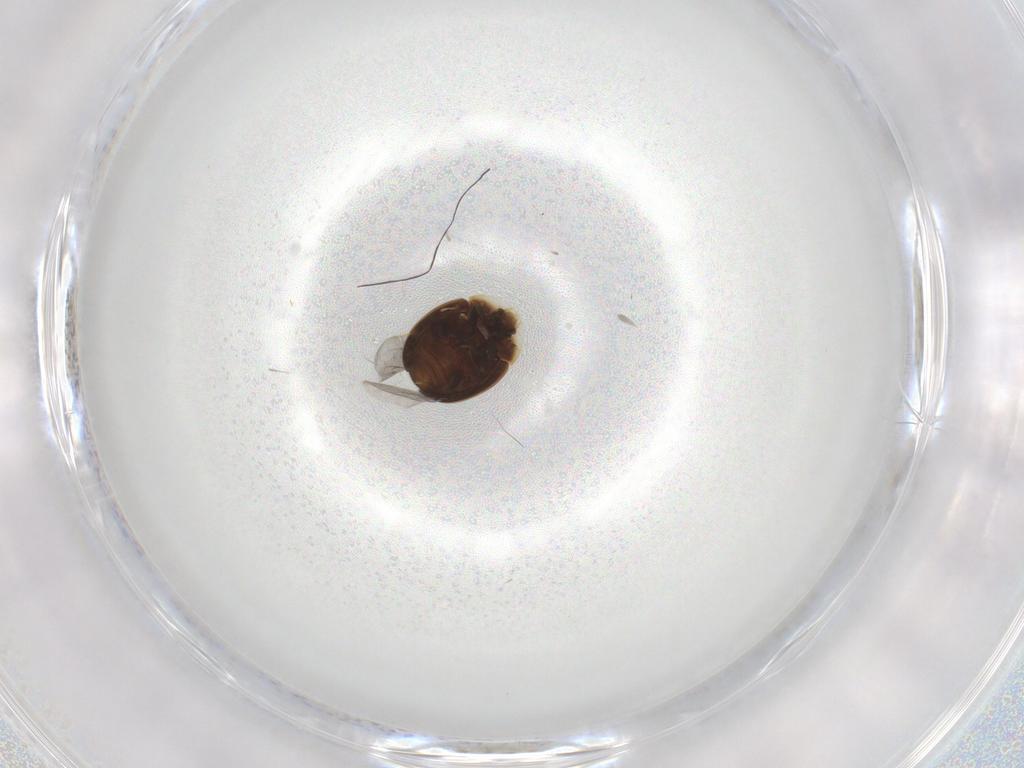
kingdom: Animalia
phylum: Arthropoda
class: Insecta
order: Coleoptera
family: Corylophidae
